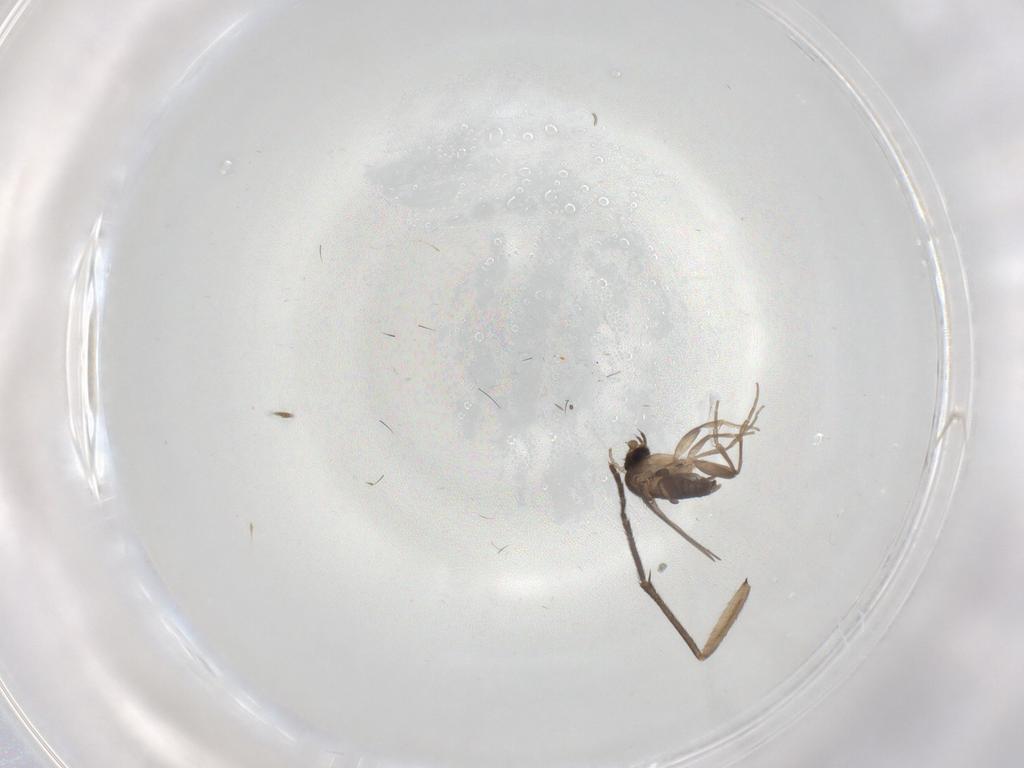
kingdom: Animalia
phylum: Arthropoda
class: Insecta
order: Diptera
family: Sciaridae
